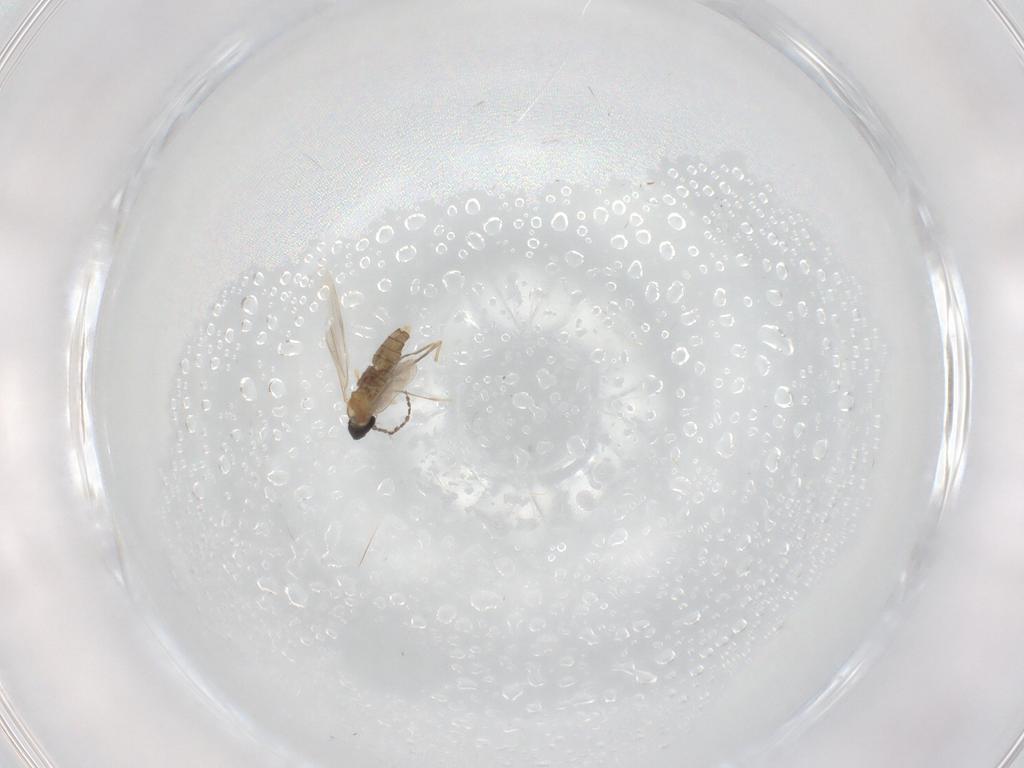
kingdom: Animalia
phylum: Arthropoda
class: Insecta
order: Diptera
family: Cecidomyiidae
